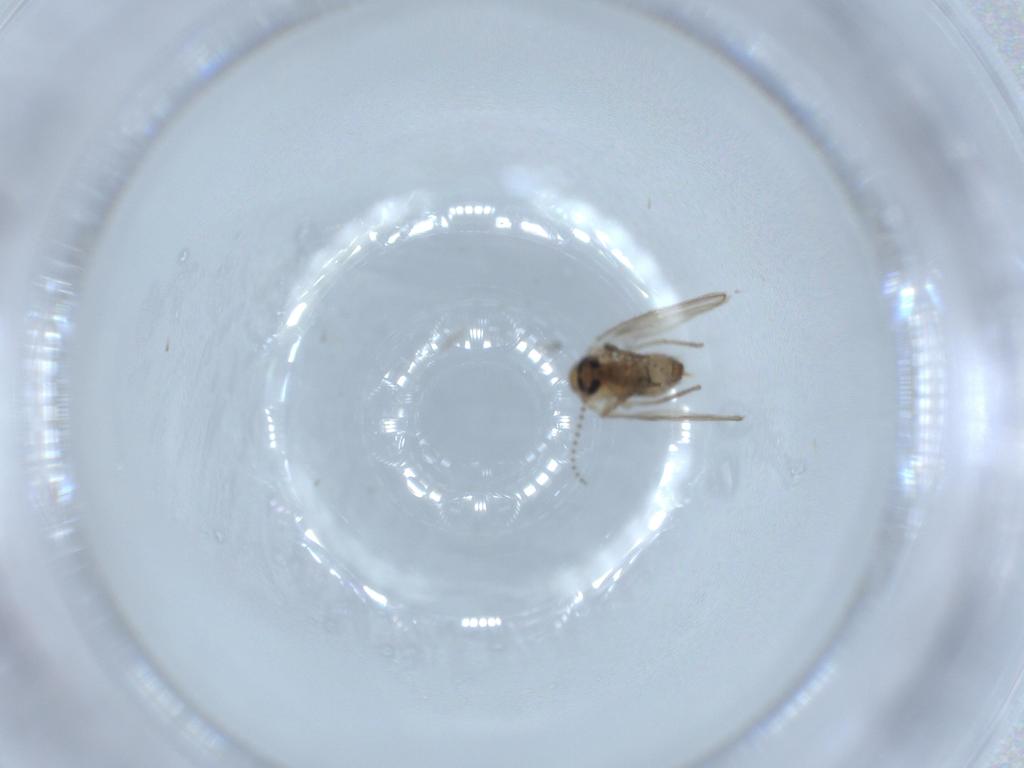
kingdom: Animalia
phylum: Arthropoda
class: Insecta
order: Diptera
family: Psychodidae
